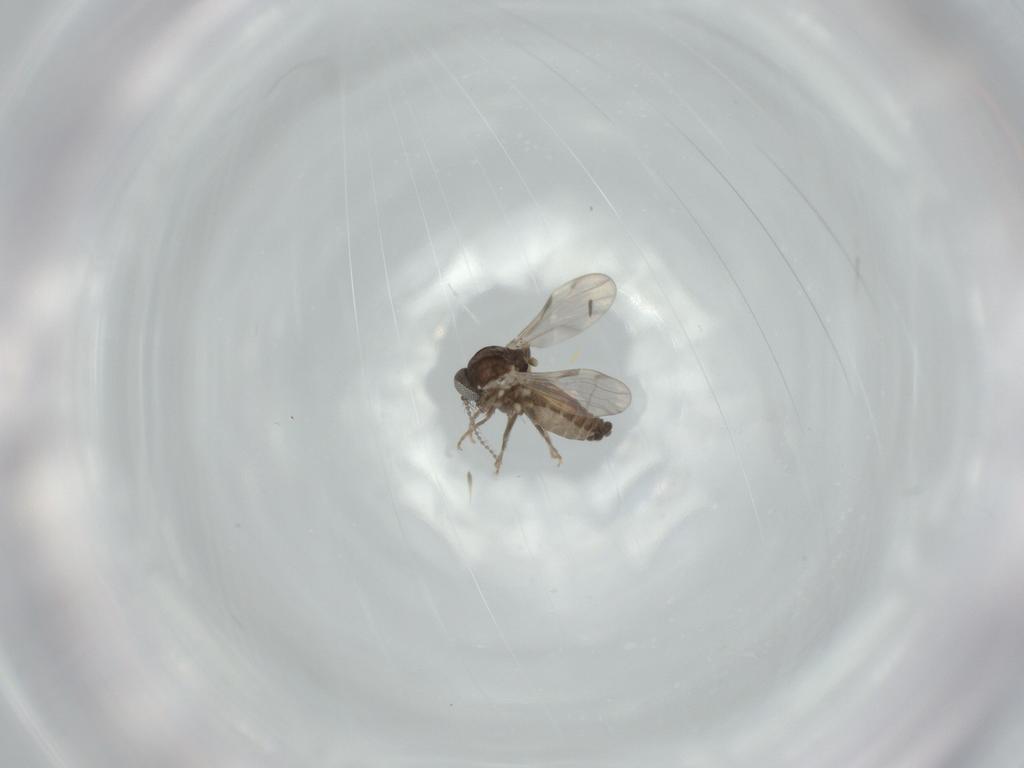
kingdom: Animalia
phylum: Arthropoda
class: Insecta
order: Diptera
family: Ceratopogonidae
